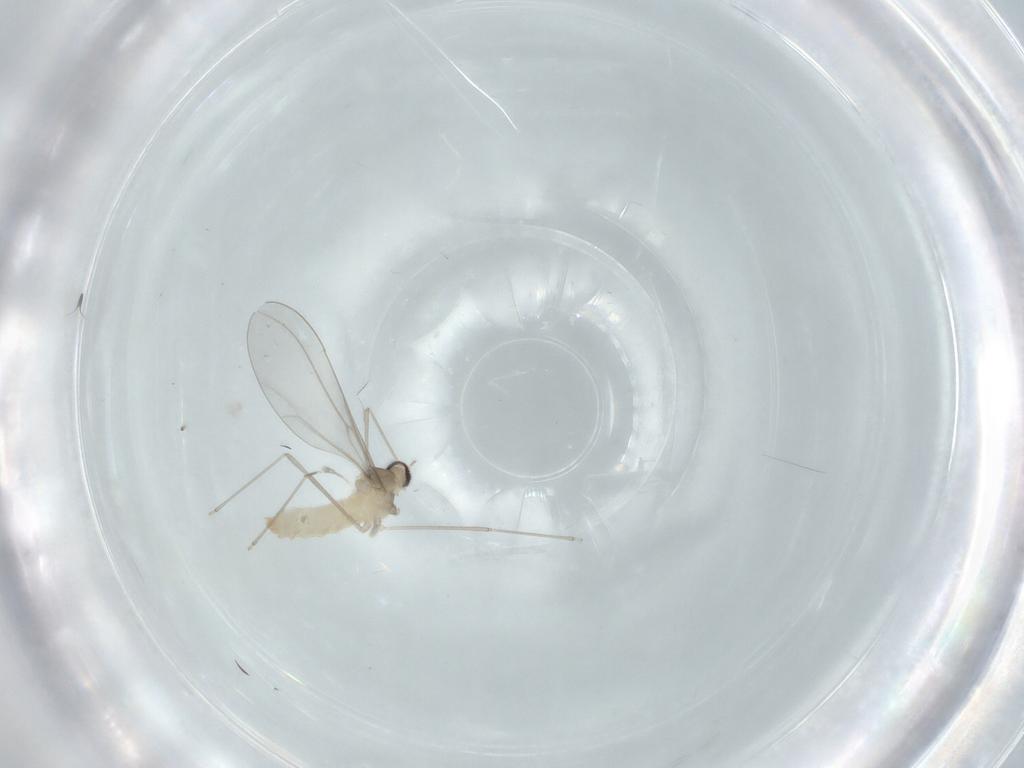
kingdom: Animalia
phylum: Arthropoda
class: Insecta
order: Diptera
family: Cecidomyiidae
